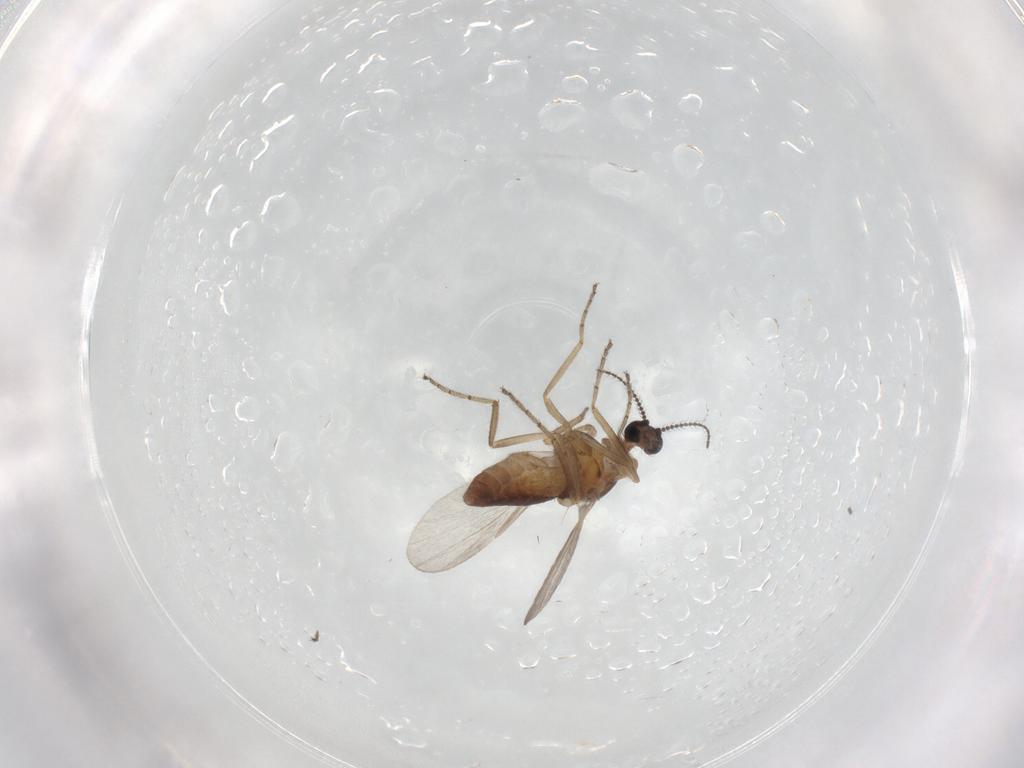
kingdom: Animalia
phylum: Arthropoda
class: Insecta
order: Diptera
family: Ceratopogonidae
